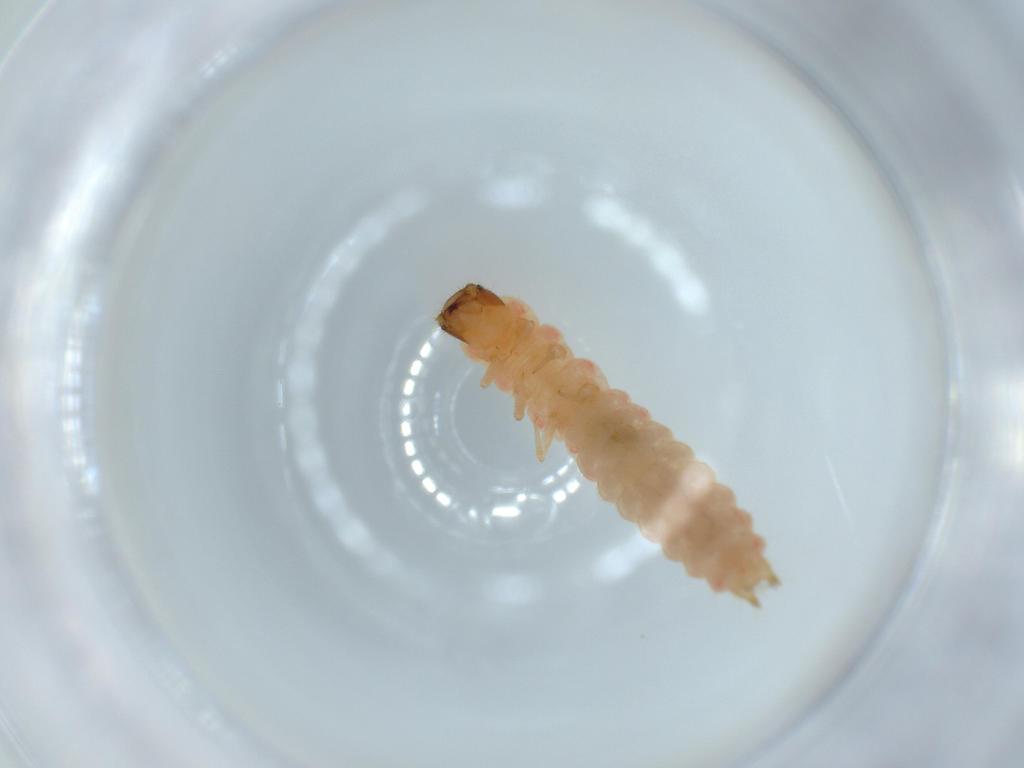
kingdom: Animalia
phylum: Arthropoda
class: Insecta
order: Coleoptera
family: Melyridae
